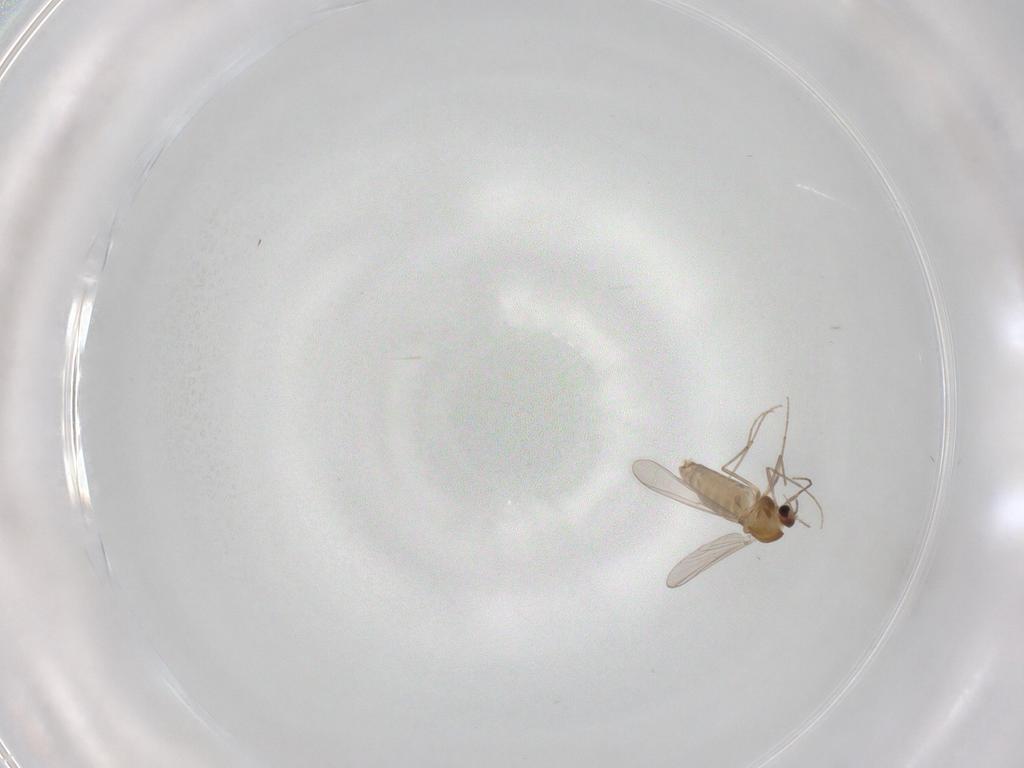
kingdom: Animalia
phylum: Arthropoda
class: Insecta
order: Diptera
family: Chironomidae
